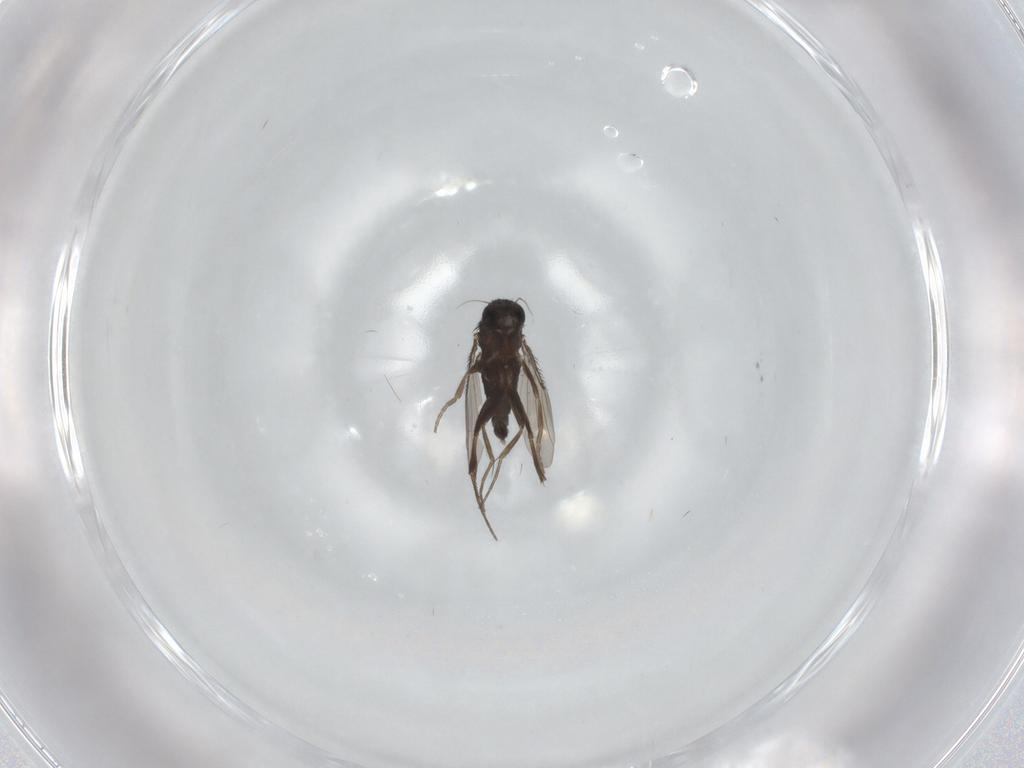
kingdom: Animalia
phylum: Arthropoda
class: Insecta
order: Diptera
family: Phoridae
